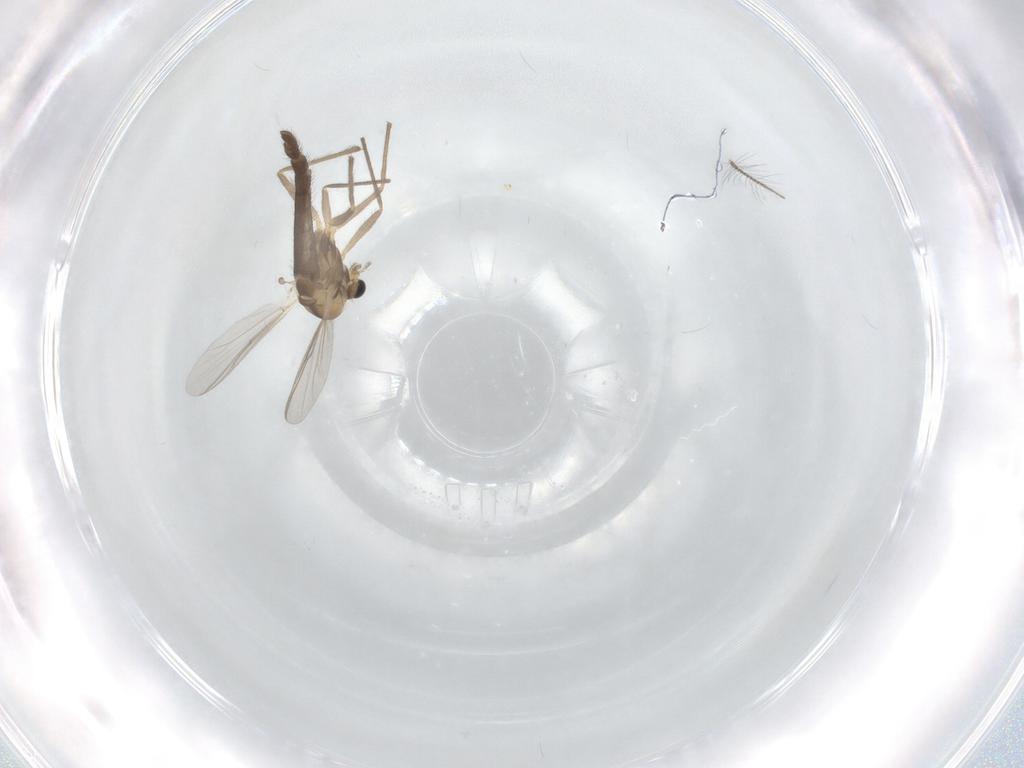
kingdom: Animalia
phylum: Arthropoda
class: Insecta
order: Diptera
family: Chironomidae
